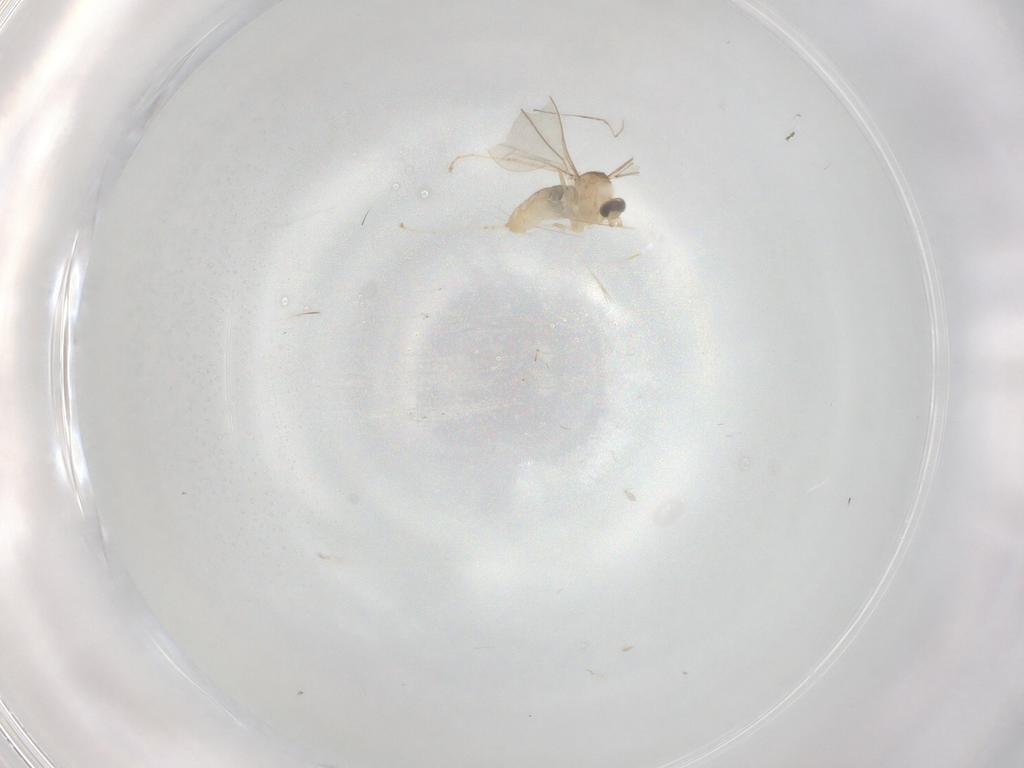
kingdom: Animalia
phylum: Arthropoda
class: Insecta
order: Diptera
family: Cecidomyiidae
